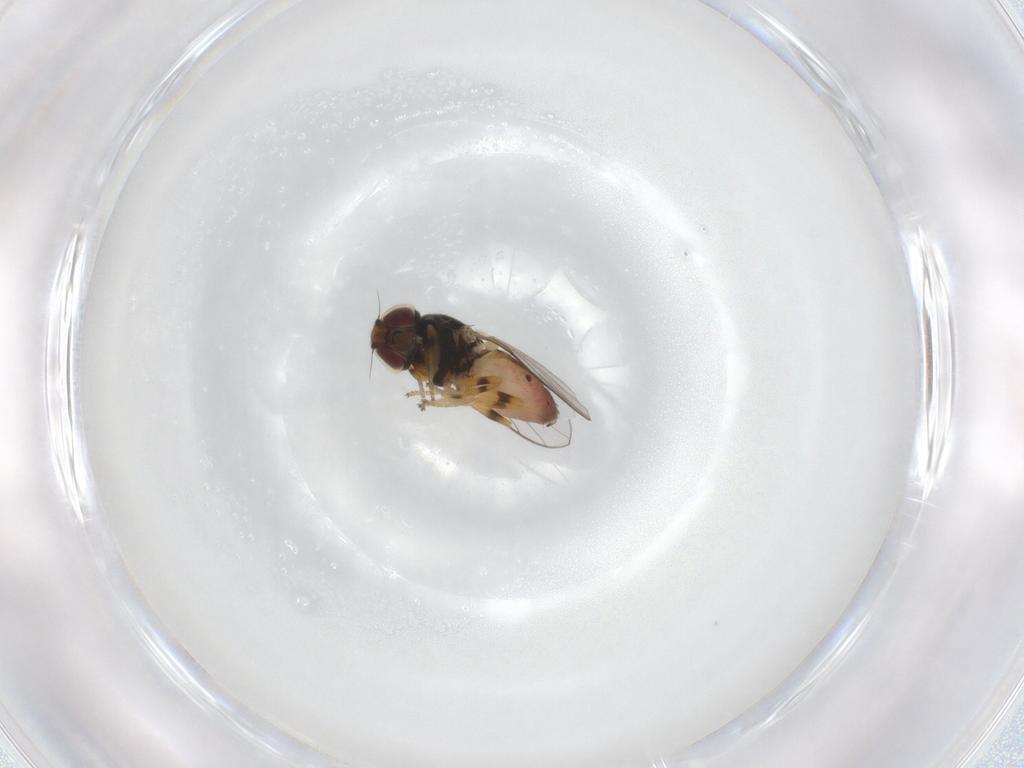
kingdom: Animalia
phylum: Arthropoda
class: Insecta
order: Diptera
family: Chloropidae
